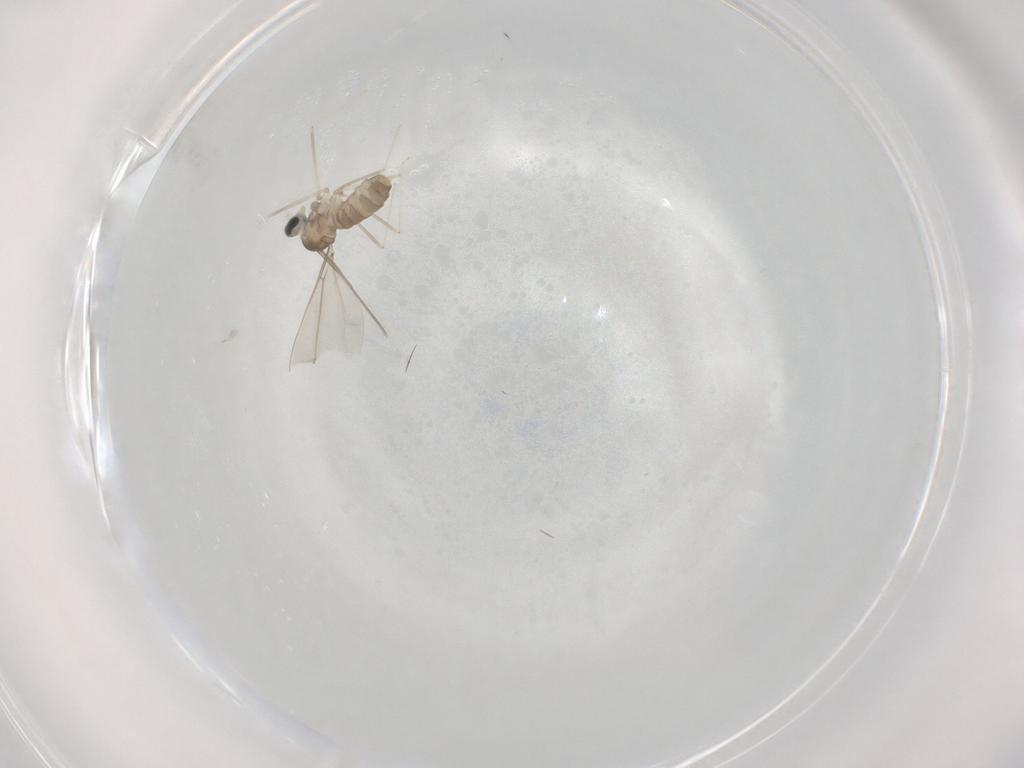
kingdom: Animalia
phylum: Arthropoda
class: Insecta
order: Diptera
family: Cecidomyiidae
